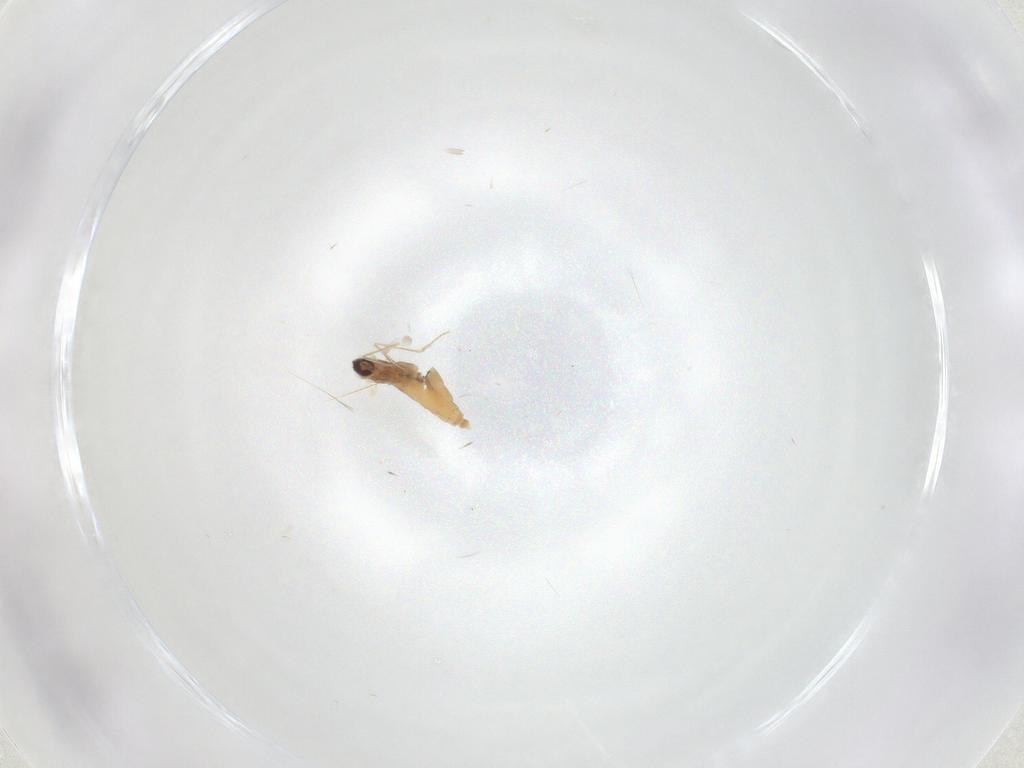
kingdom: Animalia
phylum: Arthropoda
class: Insecta
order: Diptera
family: Cecidomyiidae
